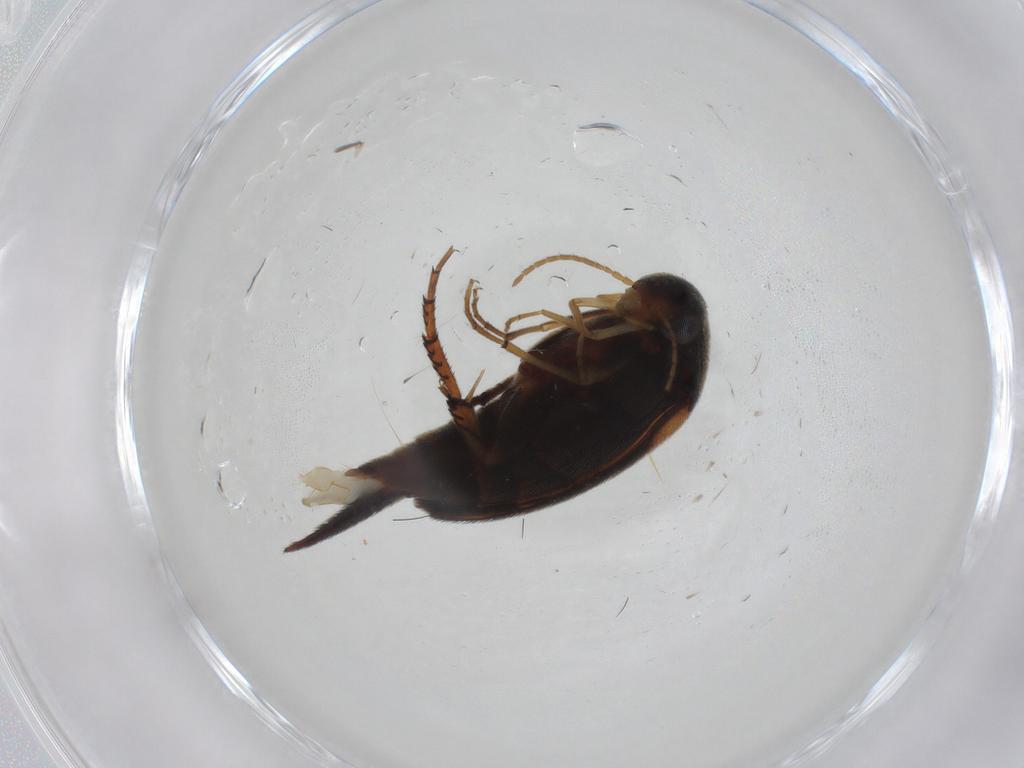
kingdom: Animalia
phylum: Arthropoda
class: Insecta
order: Coleoptera
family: Mordellidae
